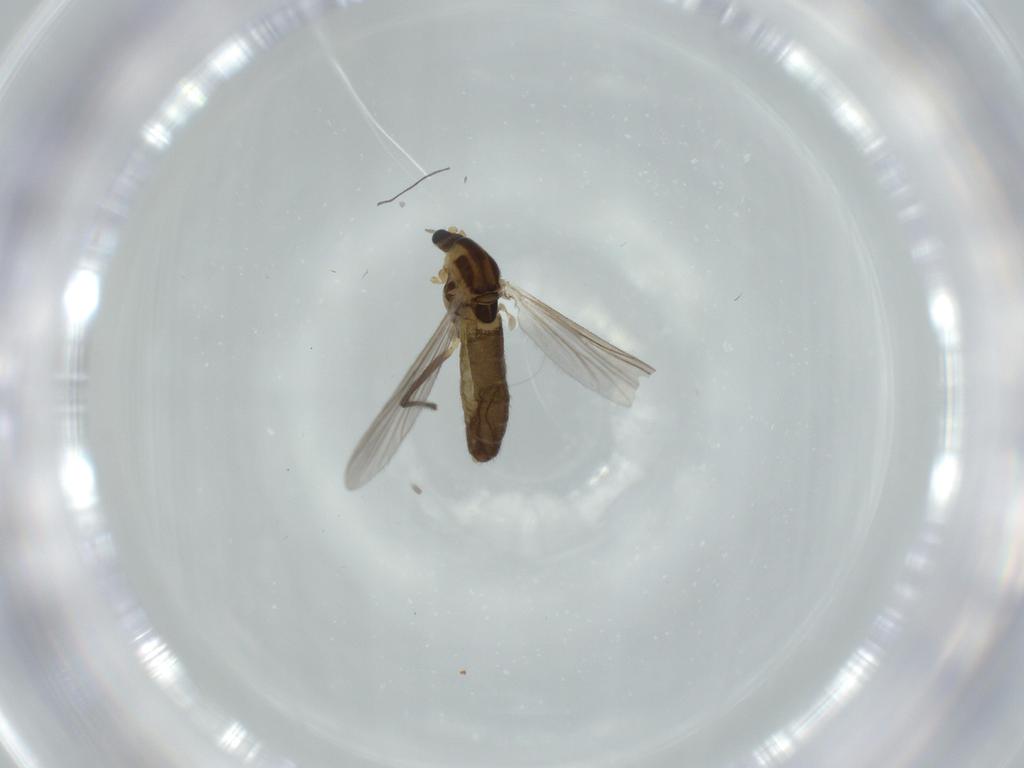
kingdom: Animalia
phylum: Arthropoda
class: Insecta
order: Diptera
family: Chironomidae
